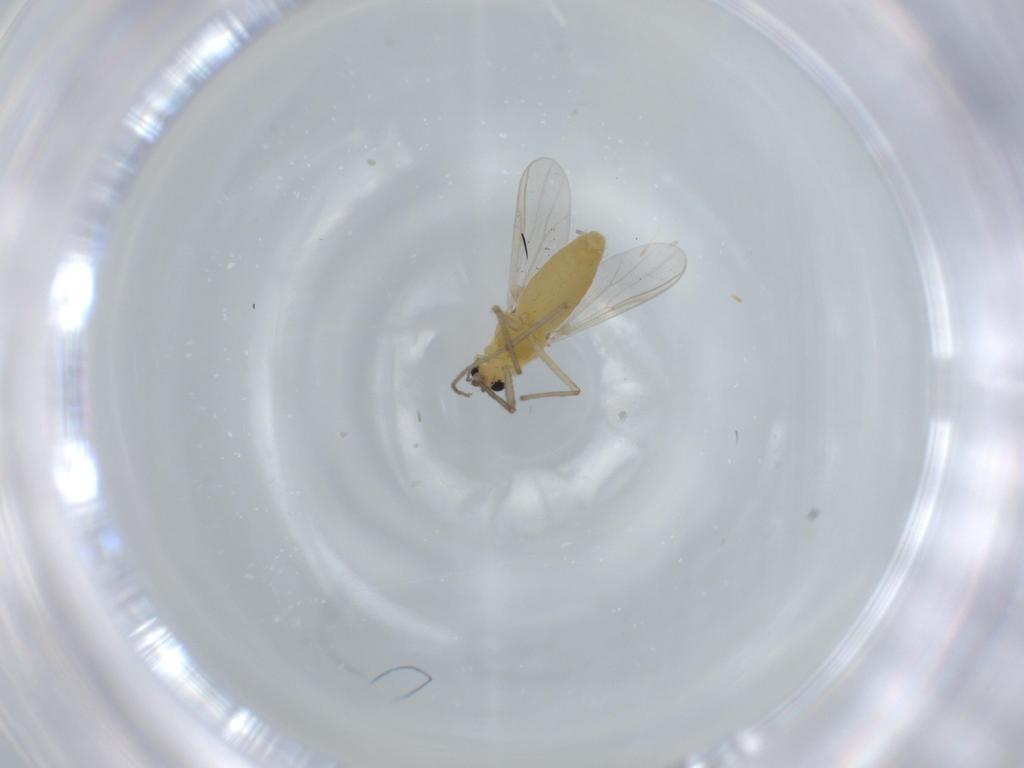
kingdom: Animalia
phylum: Arthropoda
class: Insecta
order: Diptera
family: Chironomidae
